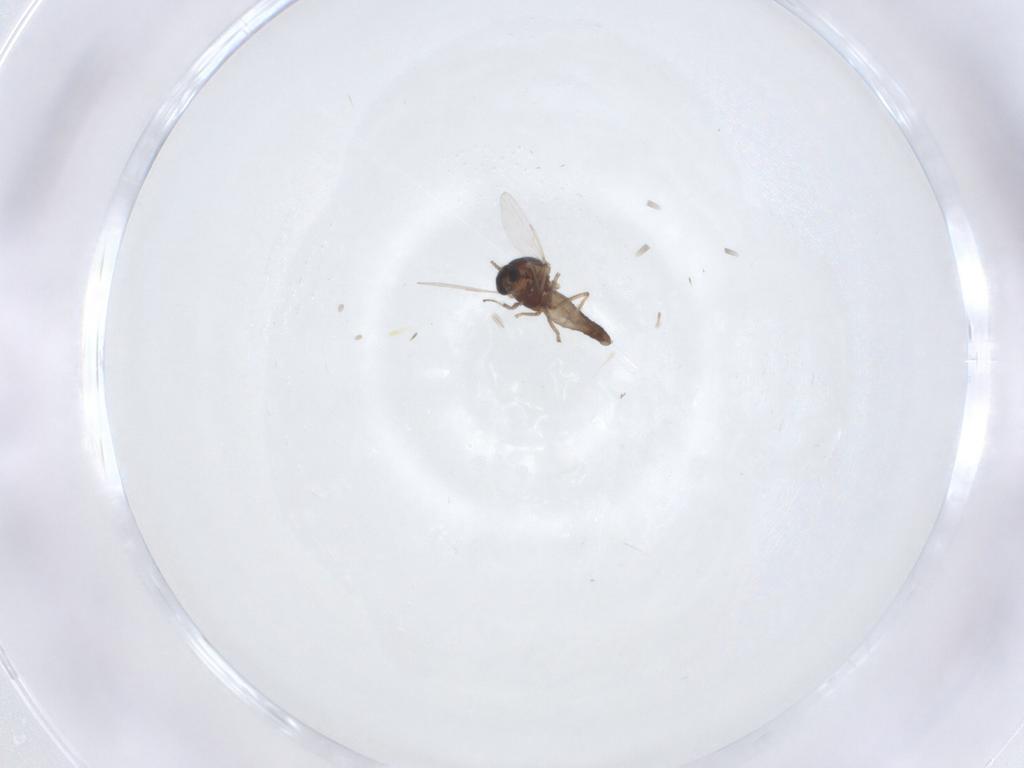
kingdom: Animalia
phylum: Arthropoda
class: Insecta
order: Diptera
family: Ceratopogonidae
